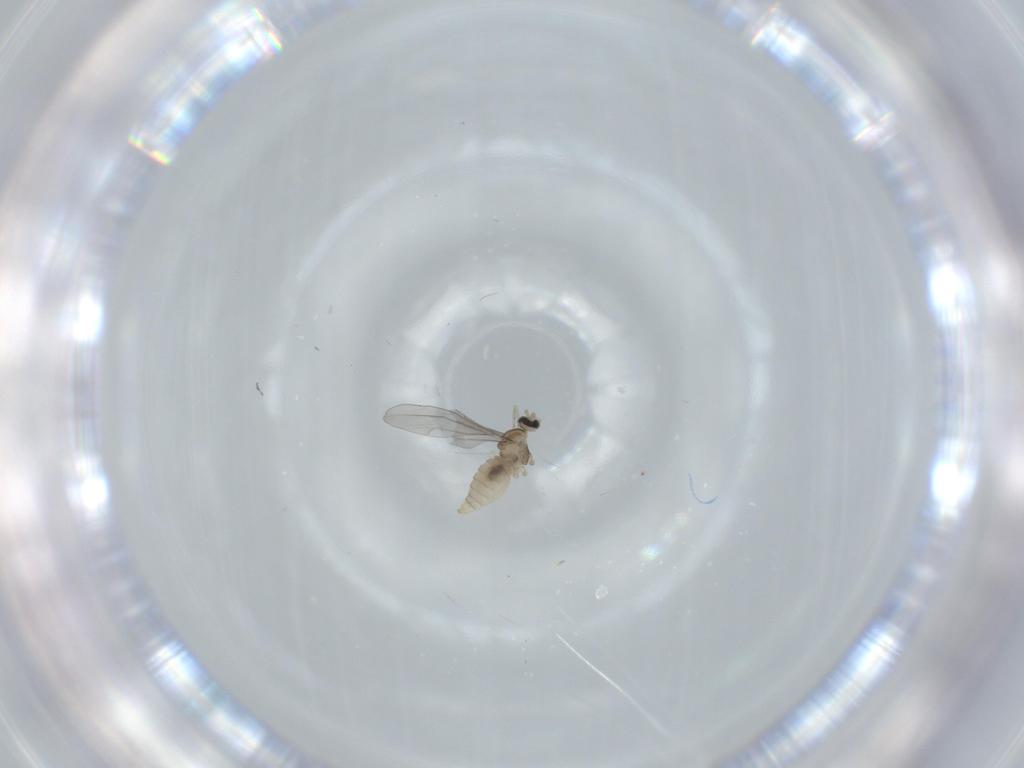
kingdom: Animalia
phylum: Arthropoda
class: Insecta
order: Diptera
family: Cecidomyiidae
